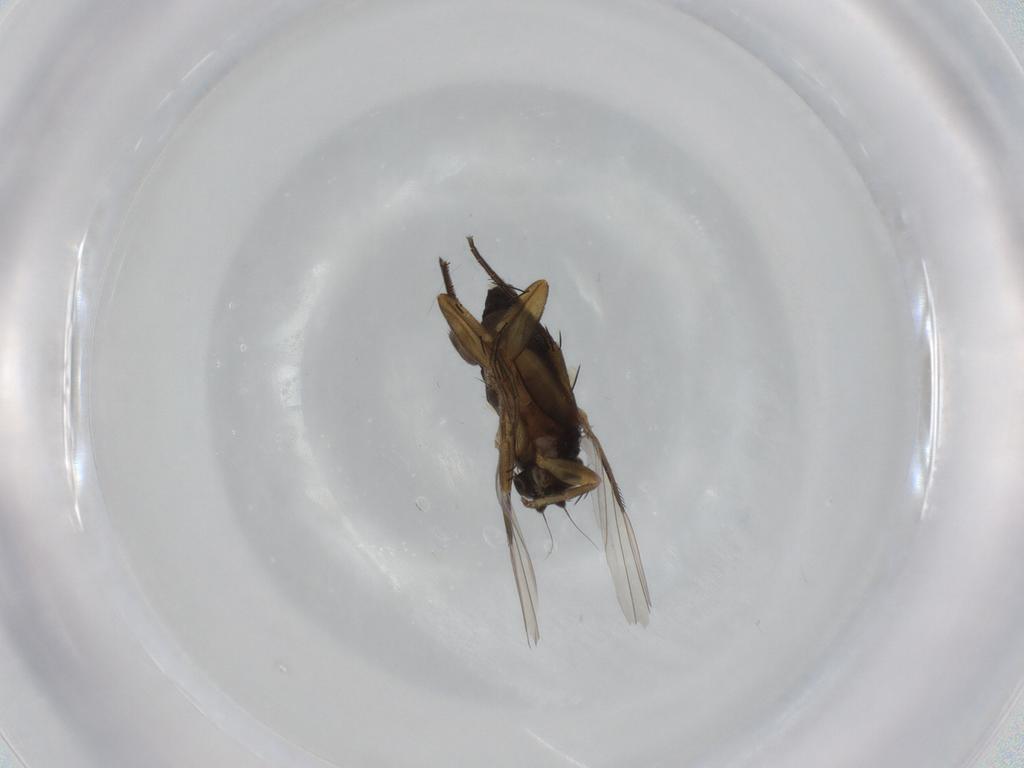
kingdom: Animalia
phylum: Arthropoda
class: Insecta
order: Diptera
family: Phoridae
